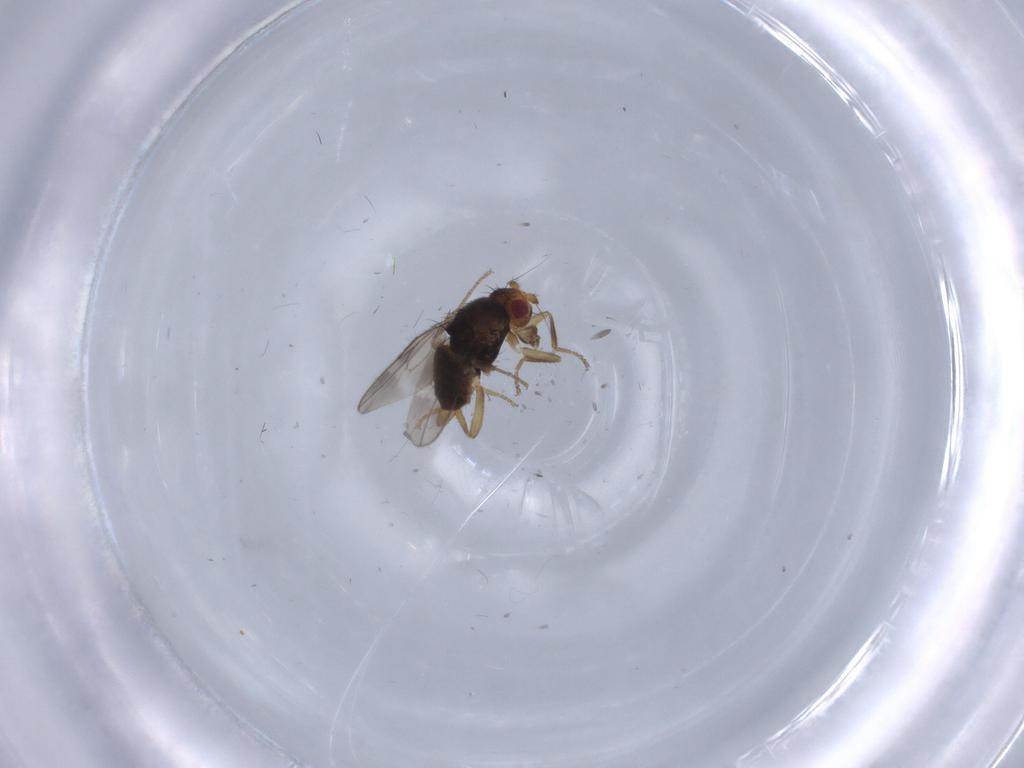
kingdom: Animalia
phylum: Arthropoda
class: Insecta
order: Diptera
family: Sphaeroceridae
